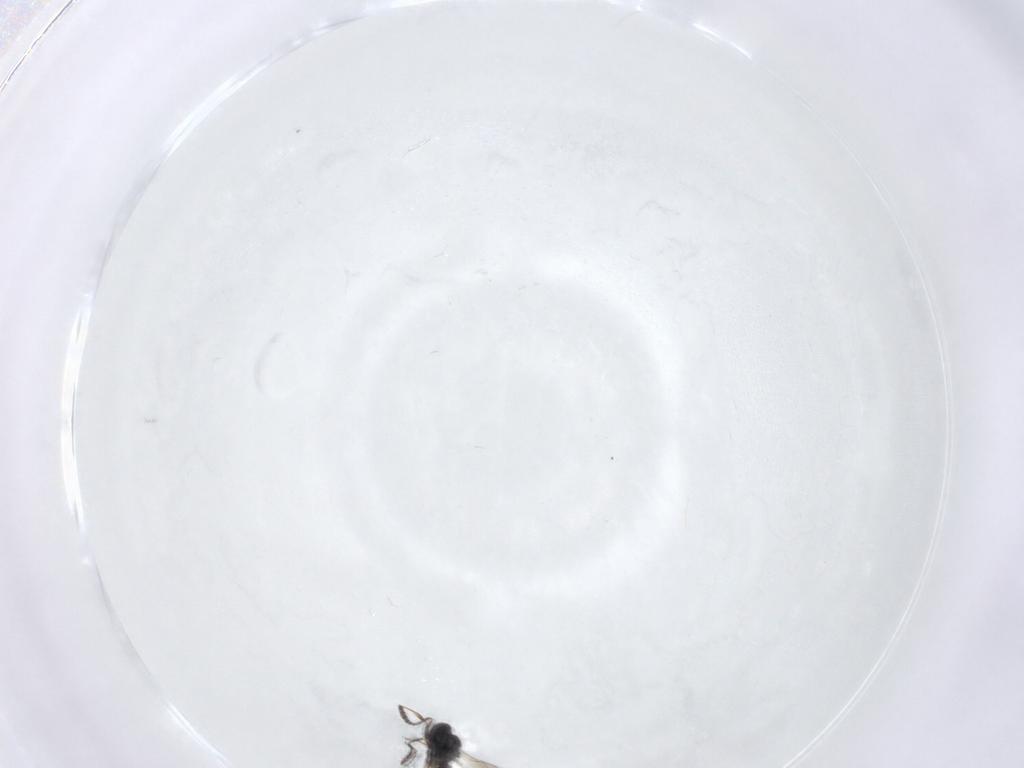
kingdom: Animalia
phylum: Arthropoda
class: Insecta
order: Hymenoptera
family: Scelionidae
